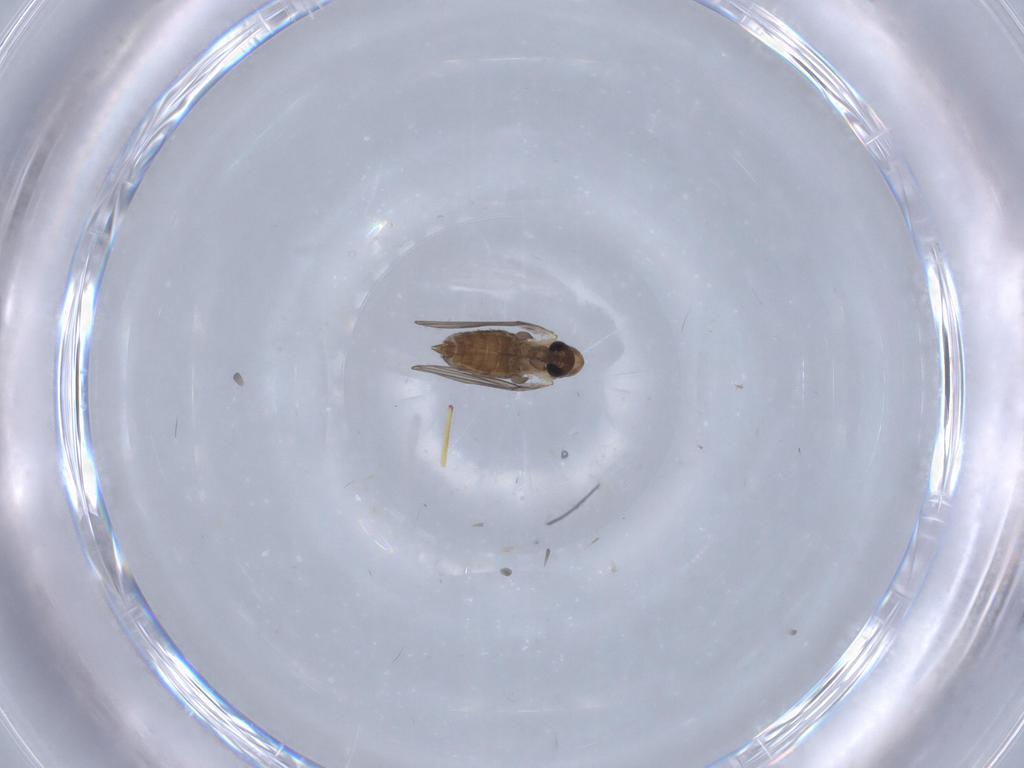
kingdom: Animalia
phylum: Arthropoda
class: Insecta
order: Diptera
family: Psychodidae
